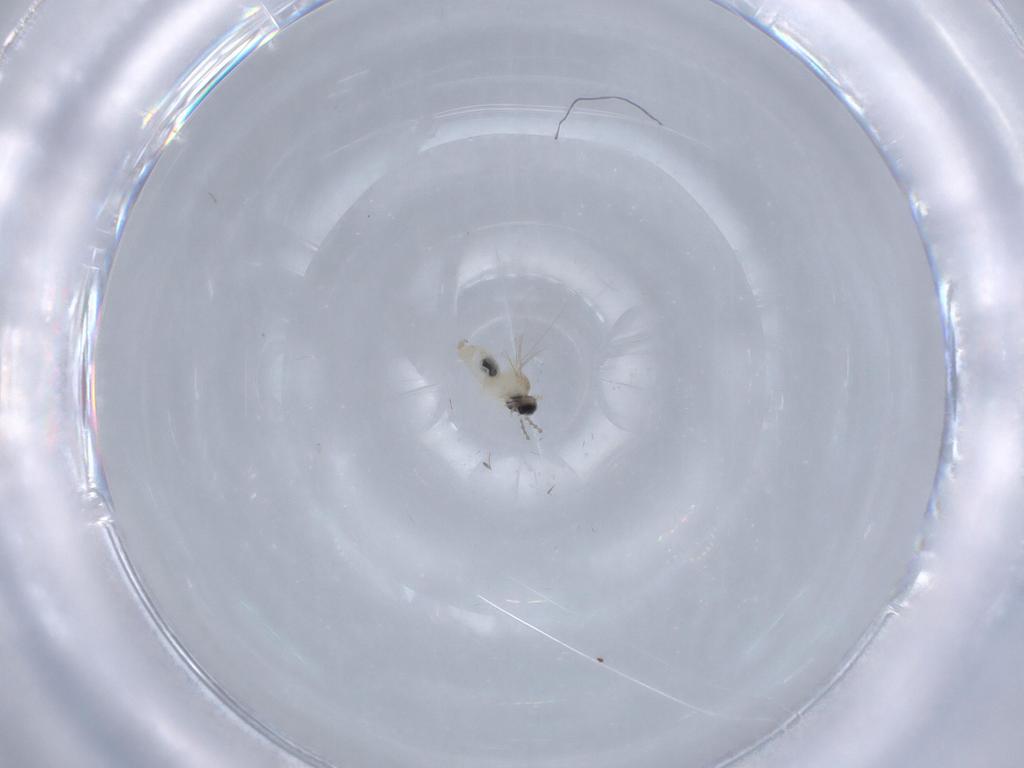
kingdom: Animalia
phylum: Arthropoda
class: Insecta
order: Diptera
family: Cecidomyiidae
